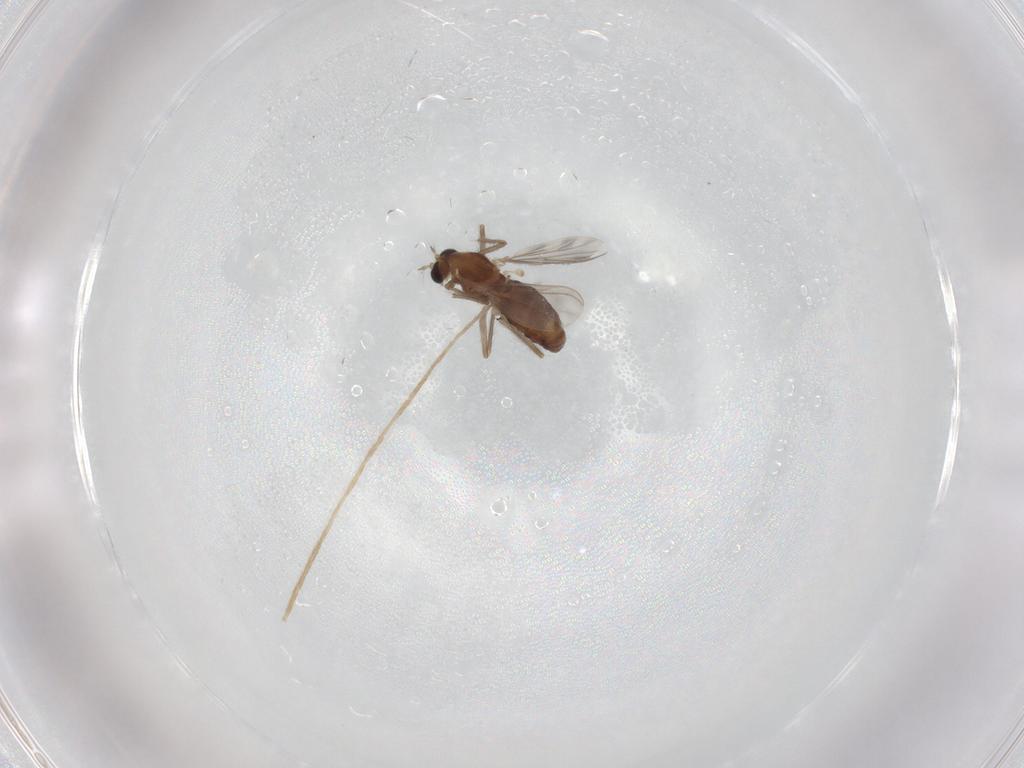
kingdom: Animalia
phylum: Arthropoda
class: Insecta
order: Diptera
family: Chironomidae
